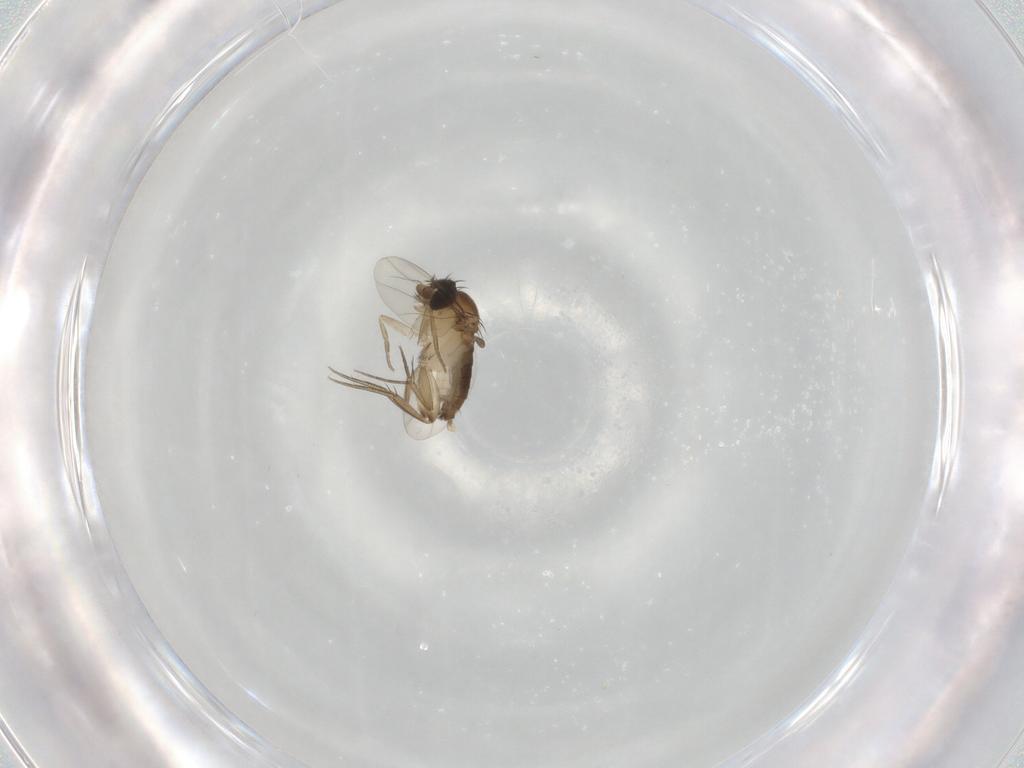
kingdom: Animalia
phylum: Arthropoda
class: Insecta
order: Diptera
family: Phoridae
